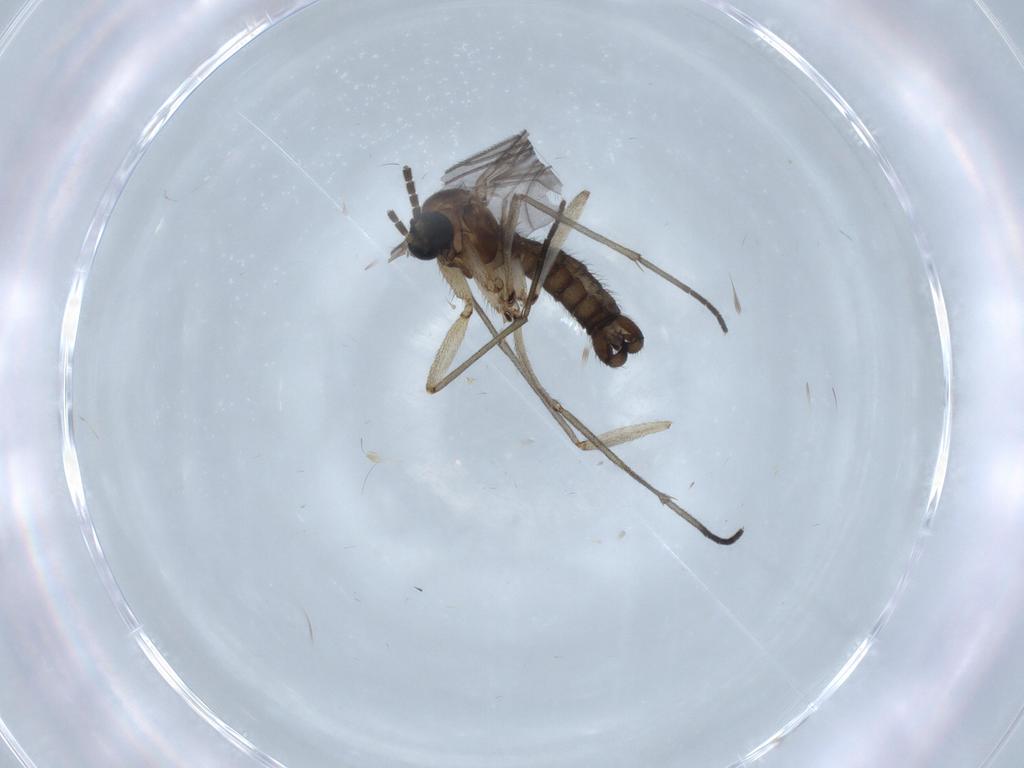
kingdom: Animalia
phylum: Arthropoda
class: Insecta
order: Diptera
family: Sciaridae
